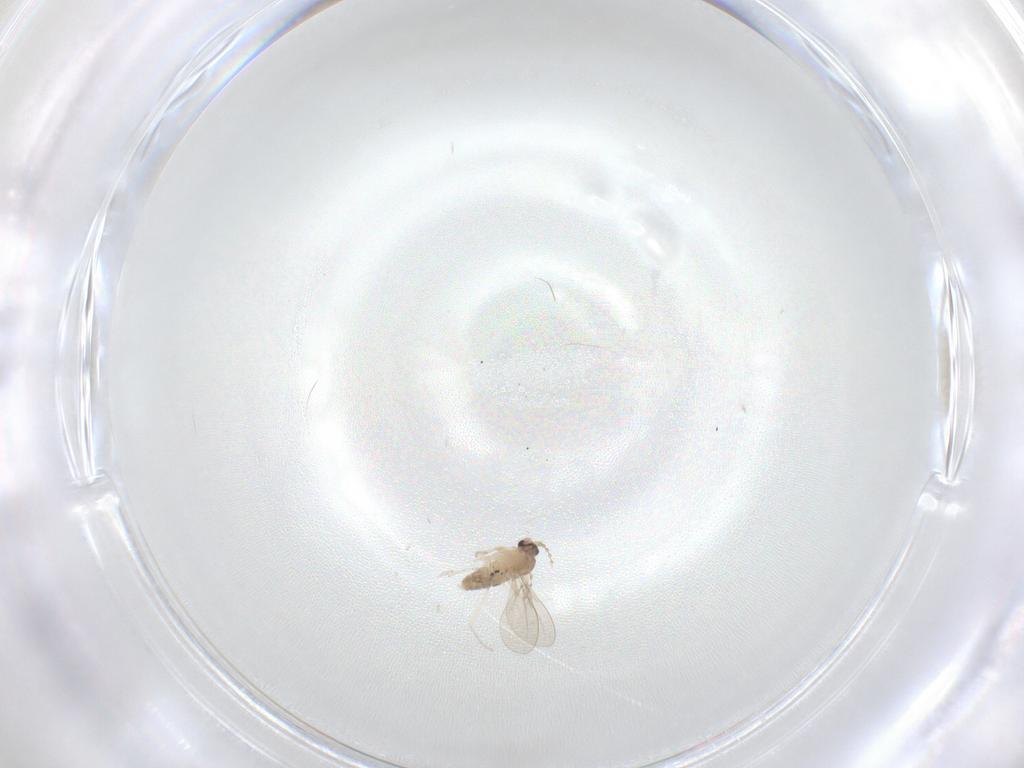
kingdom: Animalia
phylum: Arthropoda
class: Insecta
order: Diptera
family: Cecidomyiidae
